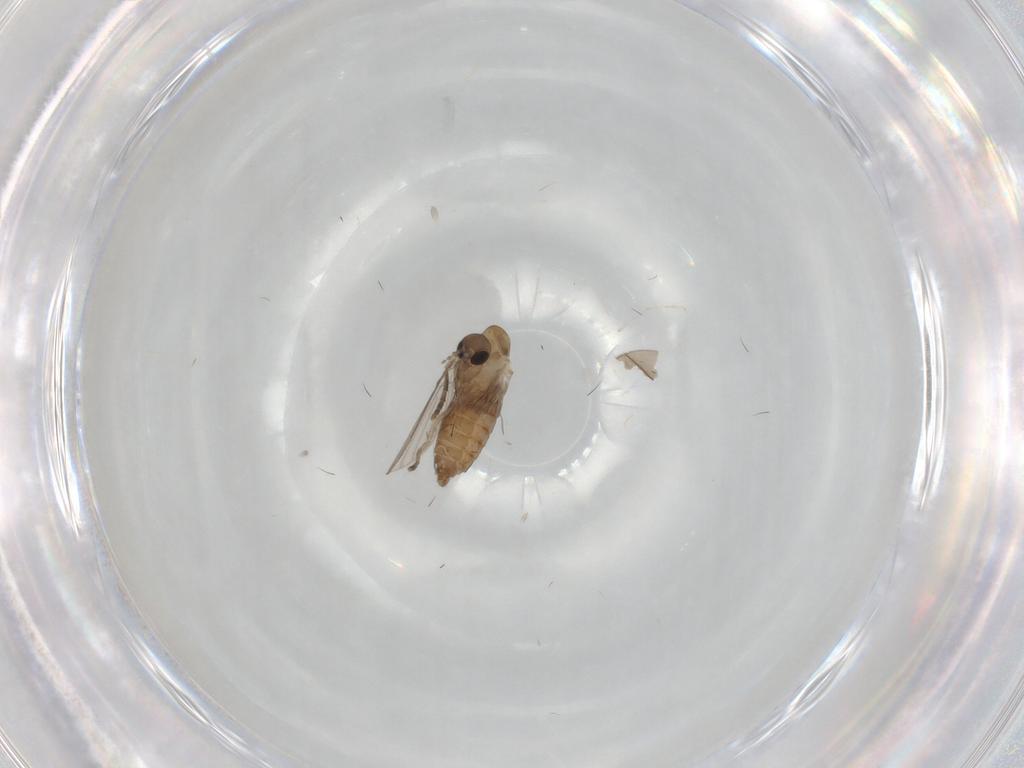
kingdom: Animalia
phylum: Arthropoda
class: Insecta
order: Diptera
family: Psychodidae
